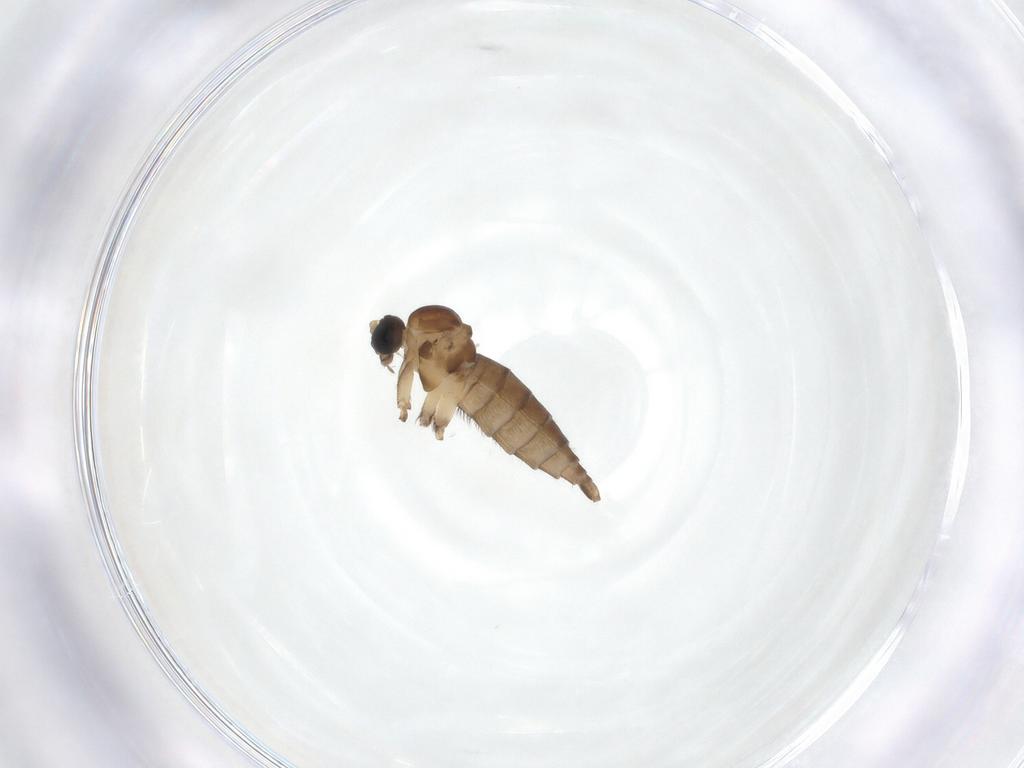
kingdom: Animalia
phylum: Arthropoda
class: Insecta
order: Diptera
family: Sciaridae
